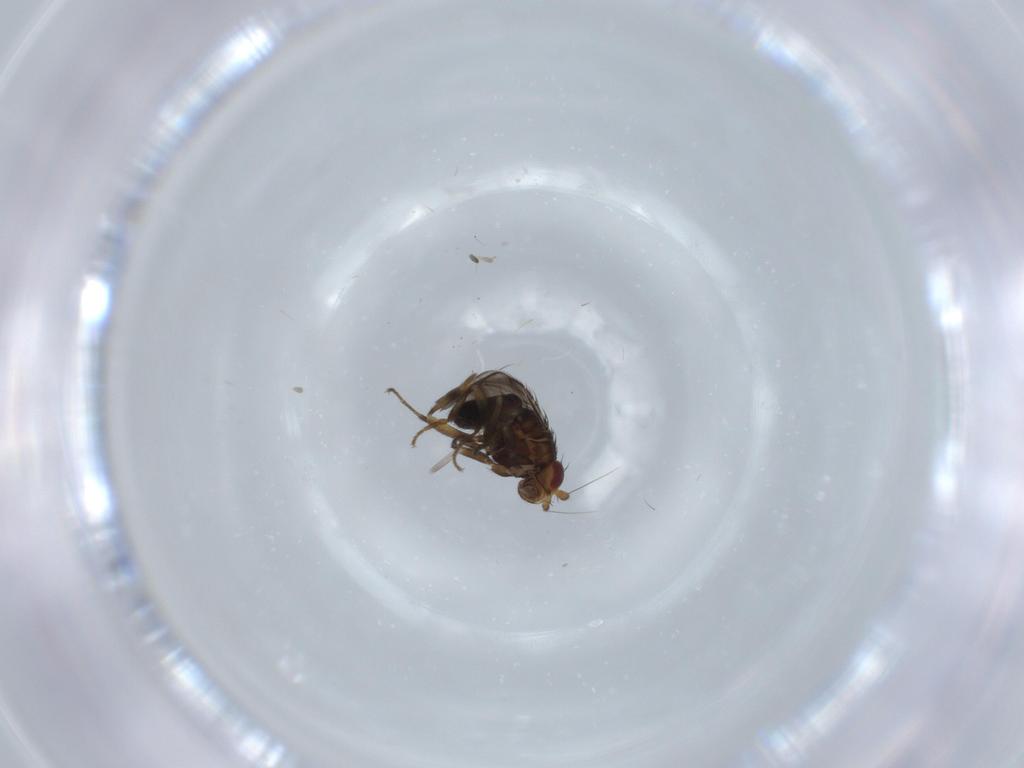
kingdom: Animalia
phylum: Arthropoda
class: Insecta
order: Diptera
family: Sphaeroceridae
